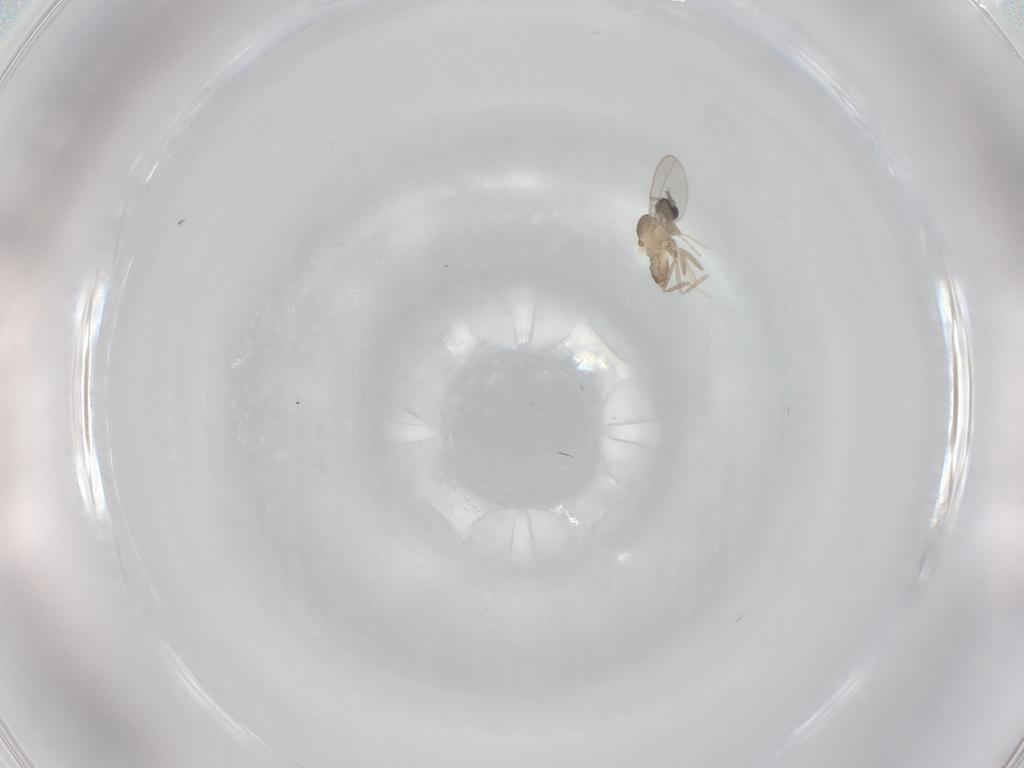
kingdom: Animalia
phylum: Arthropoda
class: Insecta
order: Diptera
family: Cecidomyiidae
